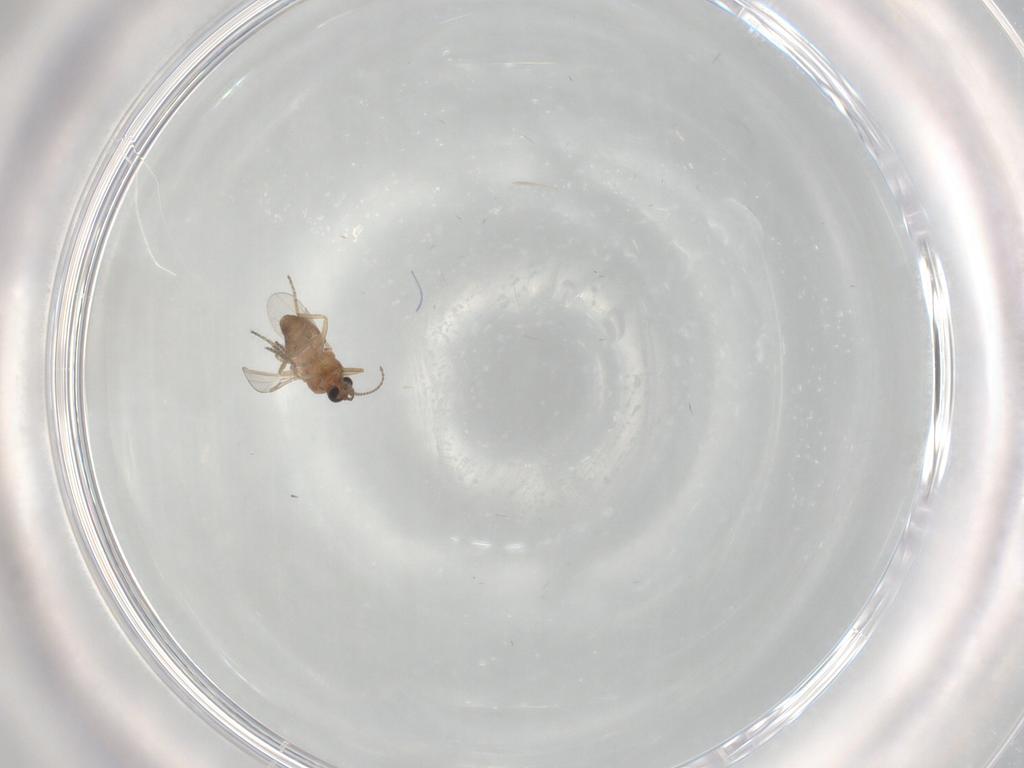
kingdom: Animalia
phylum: Arthropoda
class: Insecta
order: Diptera
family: Ceratopogonidae
